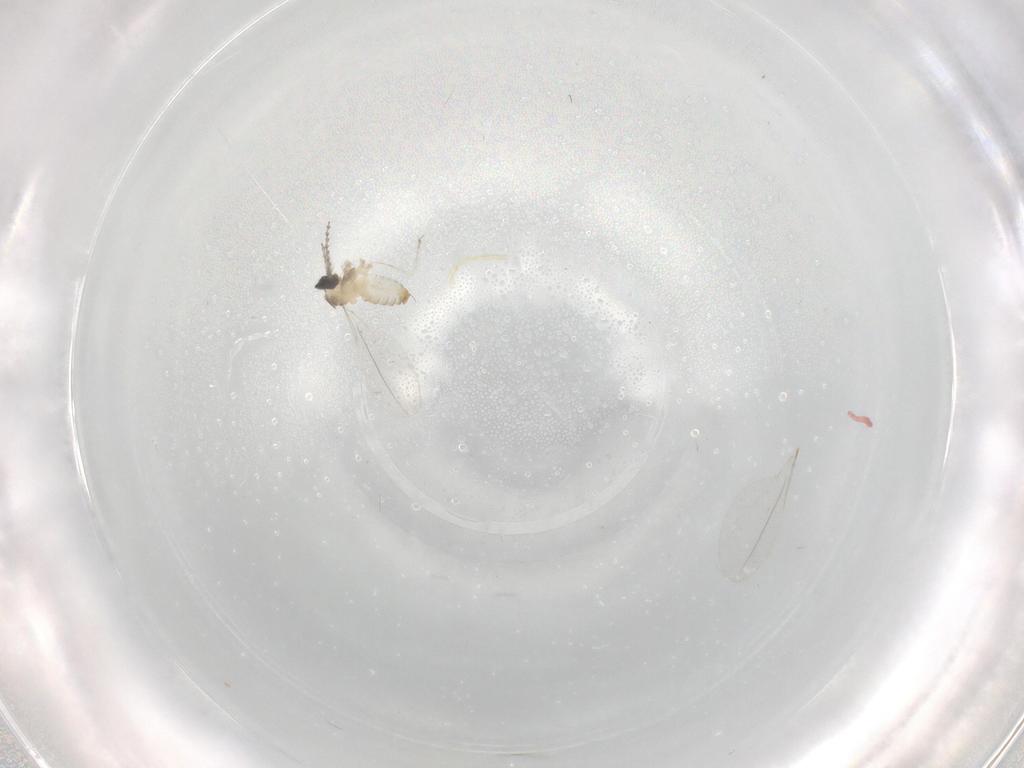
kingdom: Animalia
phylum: Arthropoda
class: Insecta
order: Diptera
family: Cecidomyiidae
